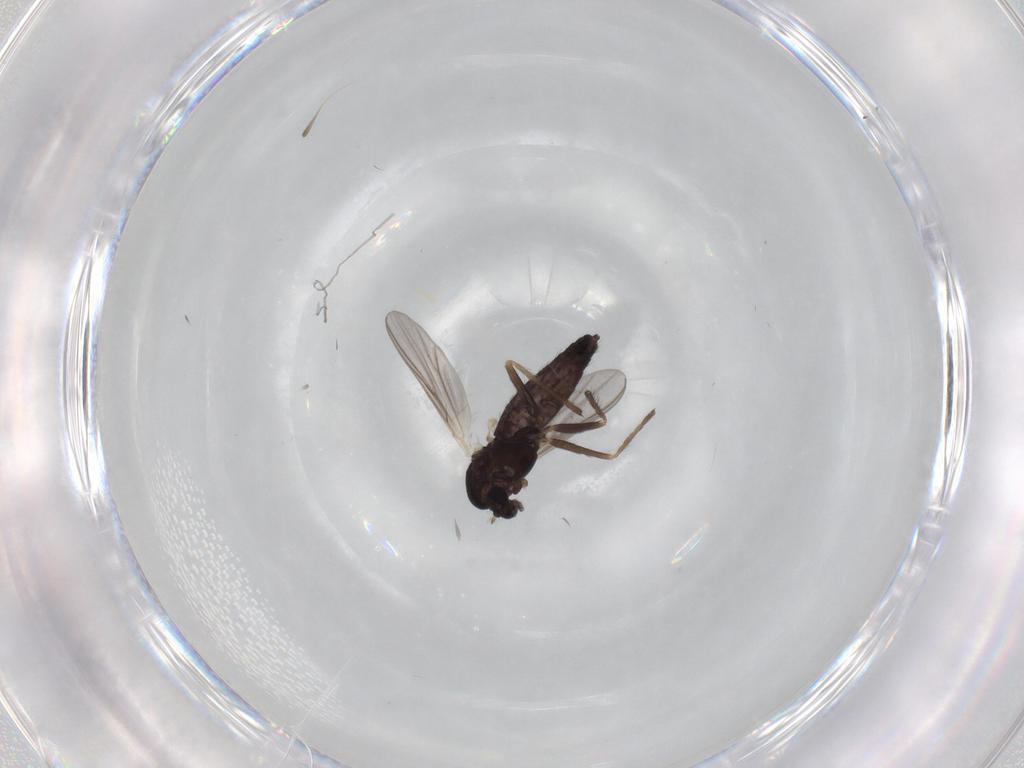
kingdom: Animalia
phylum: Arthropoda
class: Insecta
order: Diptera
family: Chironomidae
